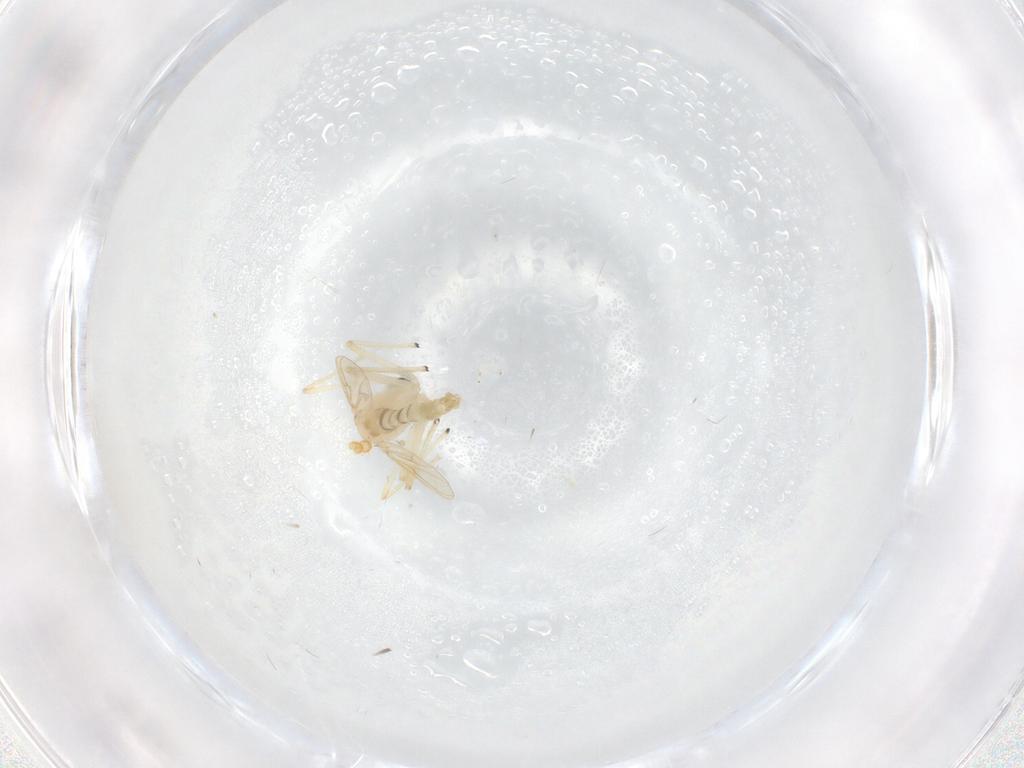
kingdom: Animalia
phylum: Arthropoda
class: Insecta
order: Diptera
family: Chironomidae
